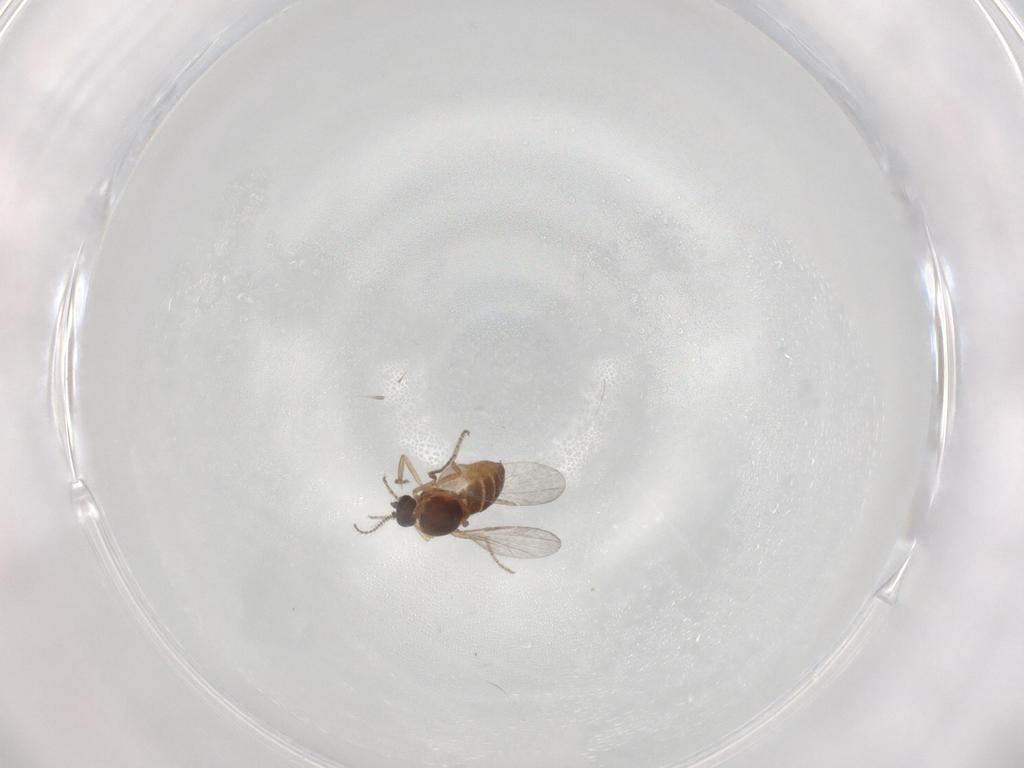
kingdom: Animalia
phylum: Arthropoda
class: Insecta
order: Diptera
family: Ceratopogonidae
